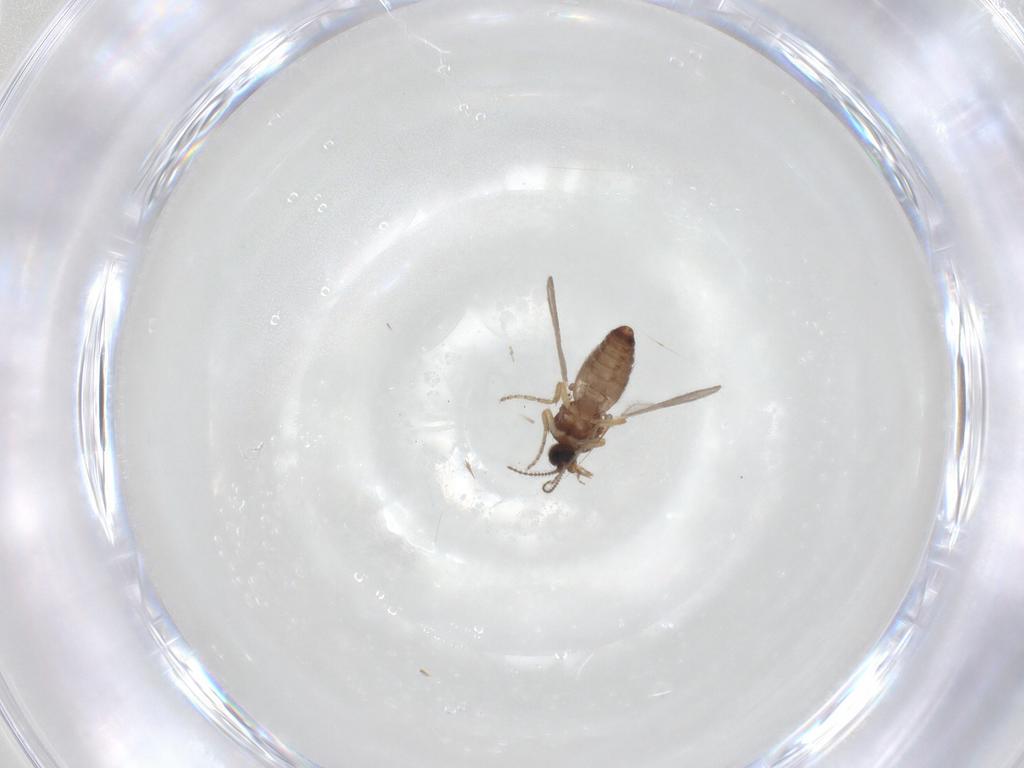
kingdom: Animalia
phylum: Arthropoda
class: Insecta
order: Diptera
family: Ceratopogonidae
